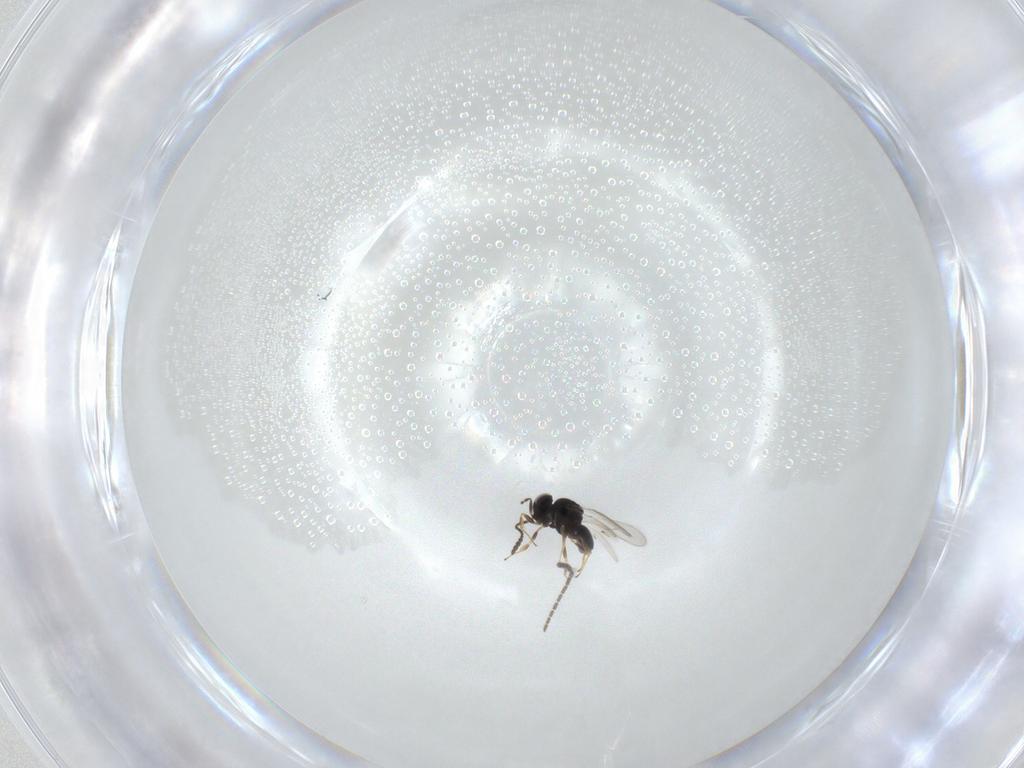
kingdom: Animalia
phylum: Arthropoda
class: Insecta
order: Hymenoptera
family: Scelionidae
